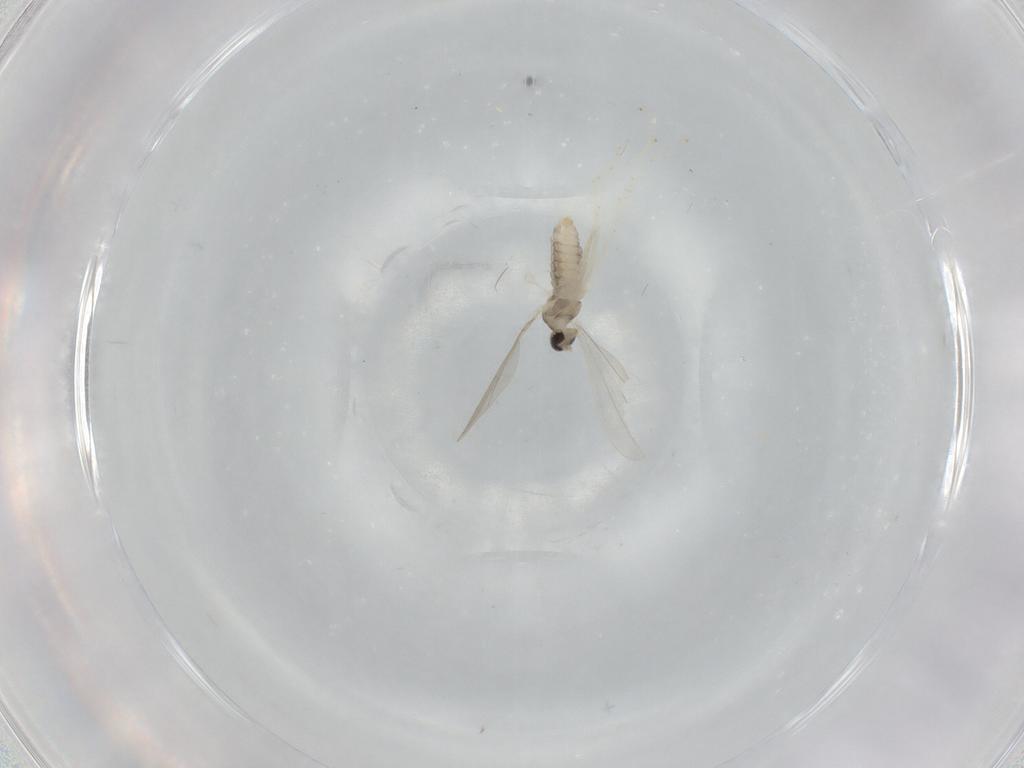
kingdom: Animalia
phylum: Arthropoda
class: Insecta
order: Diptera
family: Cecidomyiidae
